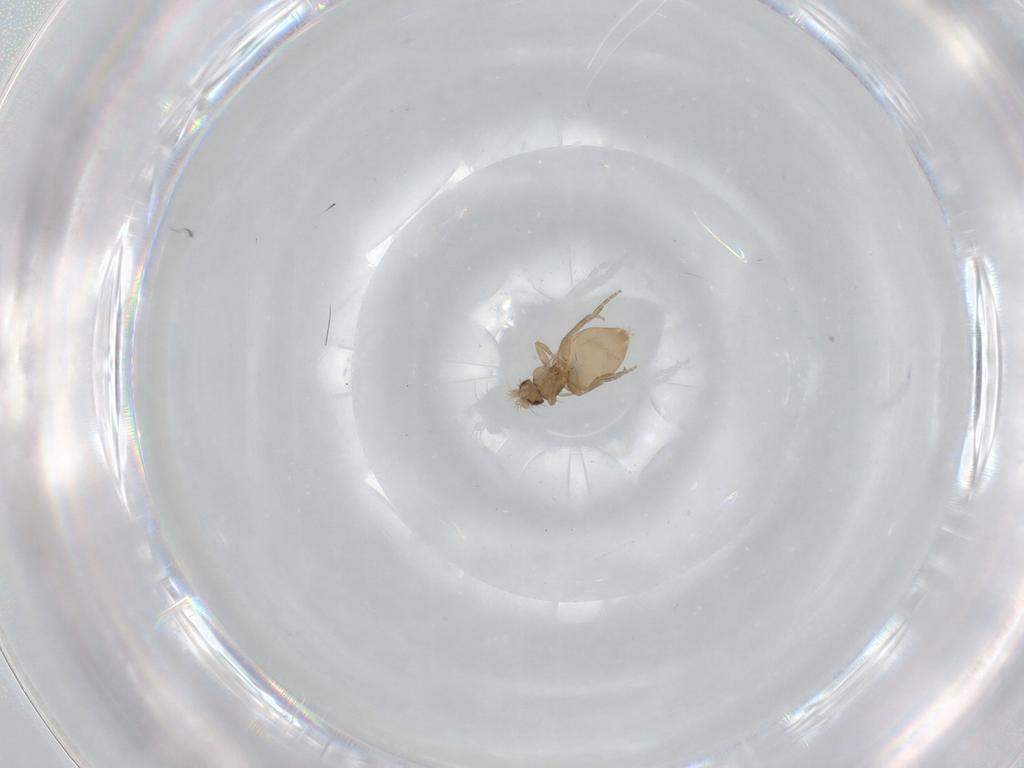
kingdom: Animalia
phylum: Arthropoda
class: Insecta
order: Diptera
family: Phoridae
